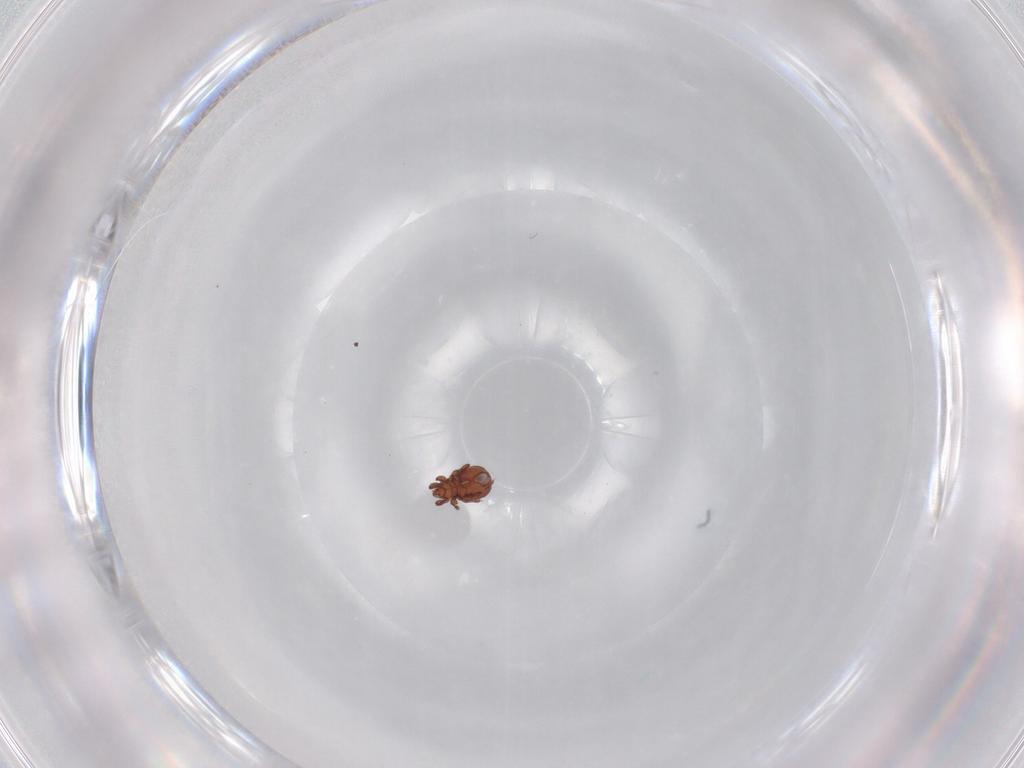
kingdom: Animalia
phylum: Arthropoda
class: Arachnida
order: Sarcoptiformes
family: Eremaeidae
